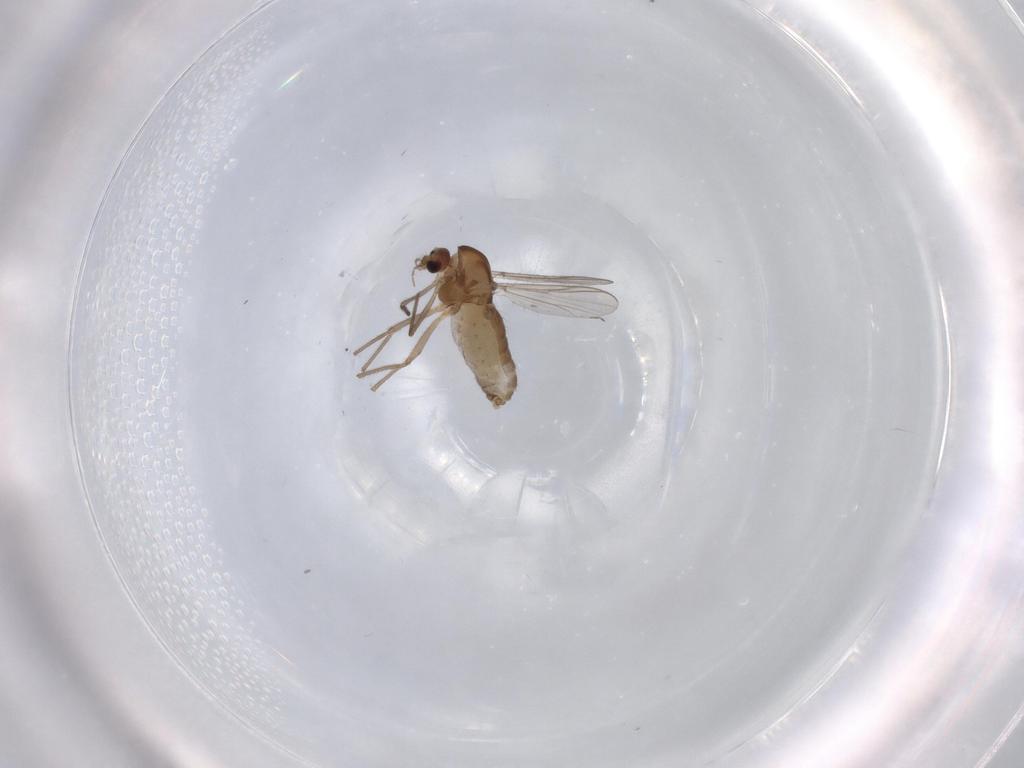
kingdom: Animalia
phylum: Arthropoda
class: Insecta
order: Diptera
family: Chironomidae
